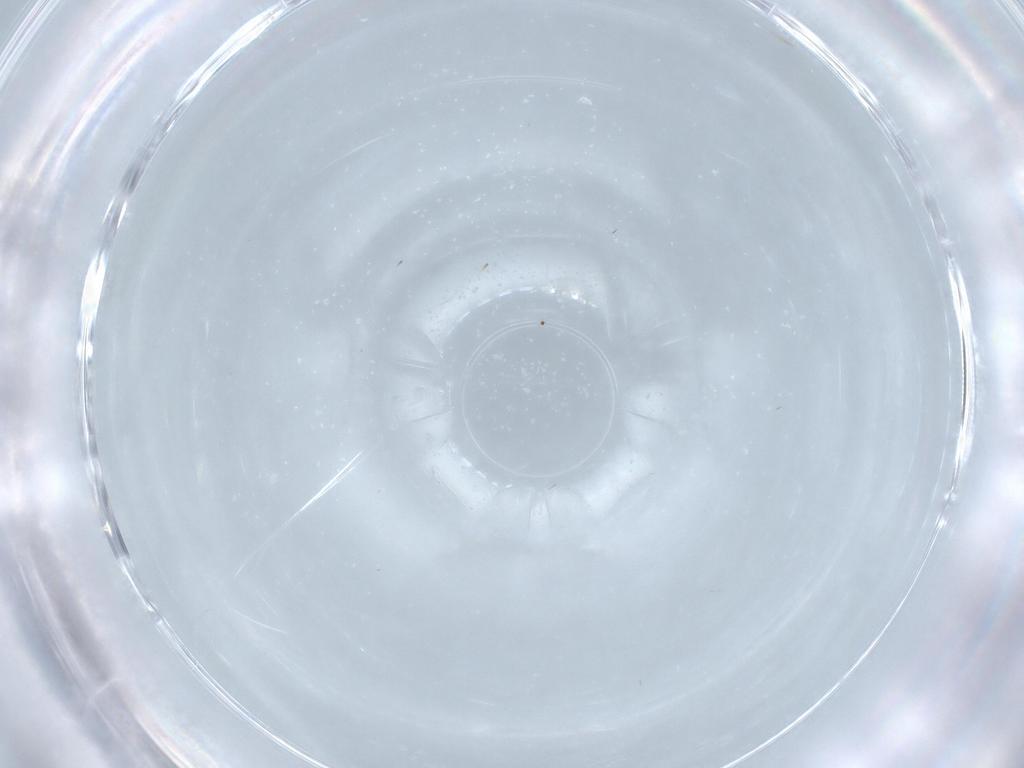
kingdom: Animalia
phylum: Arthropoda
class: Insecta
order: Diptera
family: Cecidomyiidae
